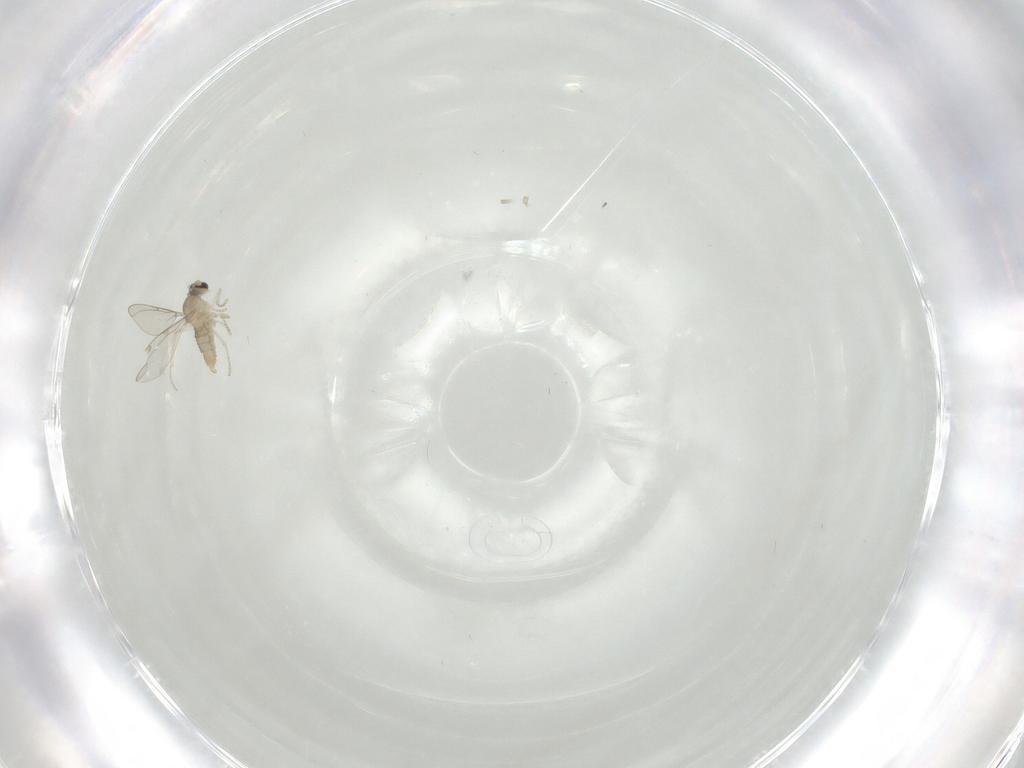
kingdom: Animalia
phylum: Arthropoda
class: Insecta
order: Diptera
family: Cecidomyiidae
